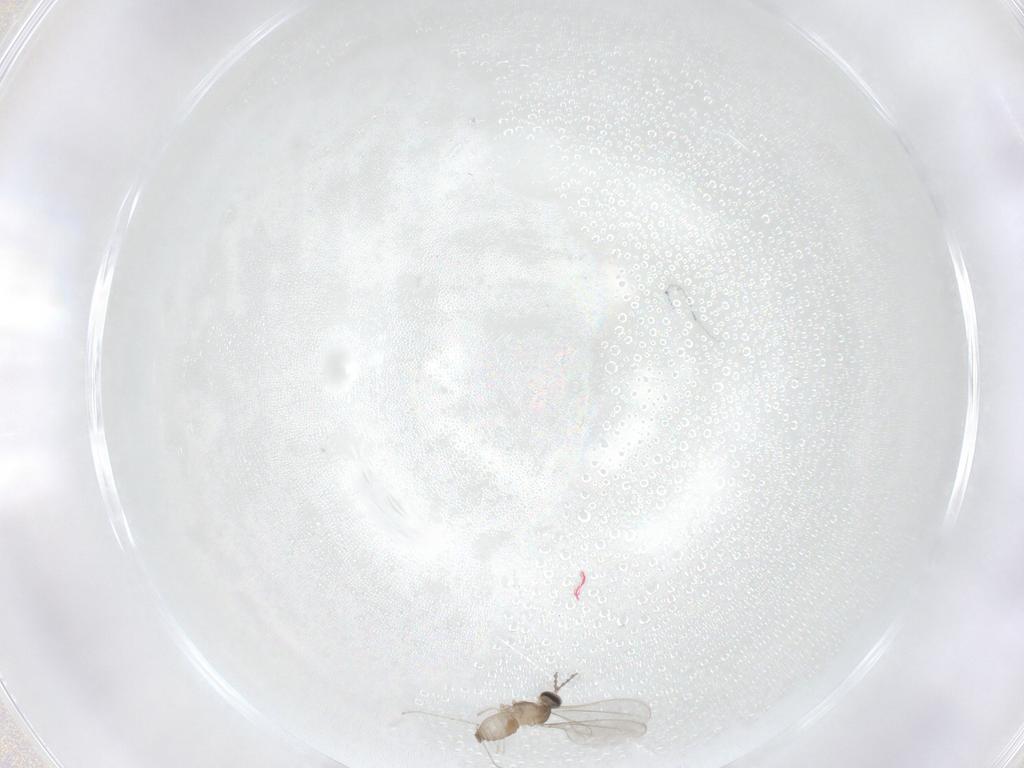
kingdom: Animalia
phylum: Arthropoda
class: Insecta
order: Diptera
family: Cecidomyiidae
